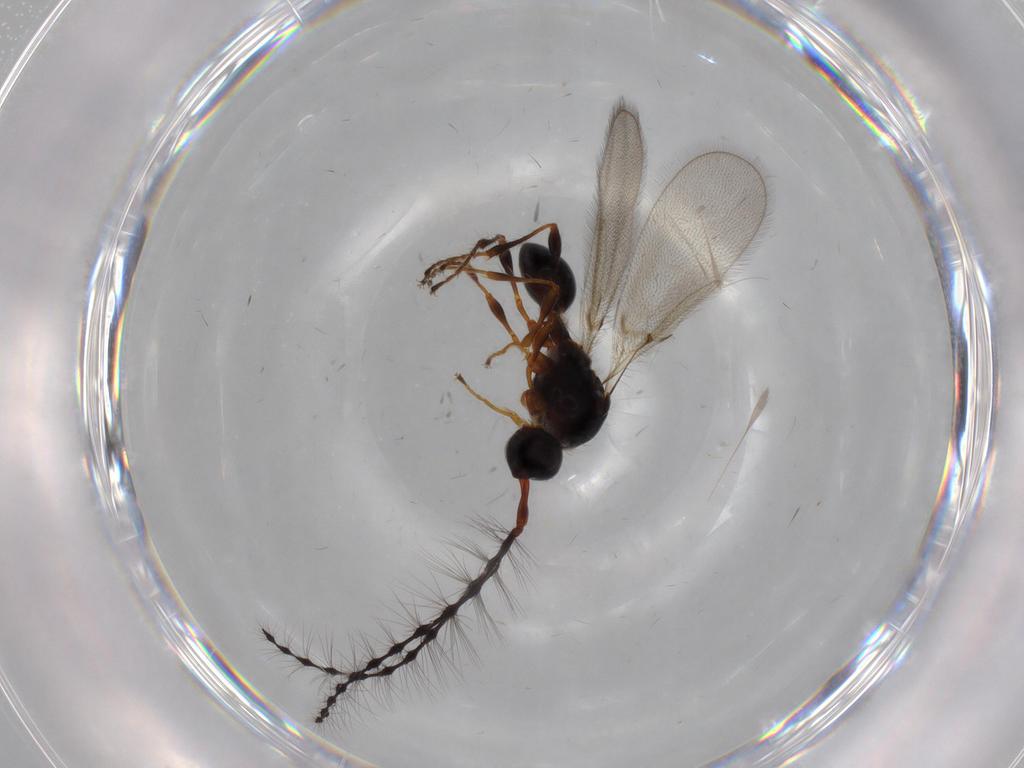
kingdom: Animalia
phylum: Arthropoda
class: Insecta
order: Hymenoptera
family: Diapriidae
